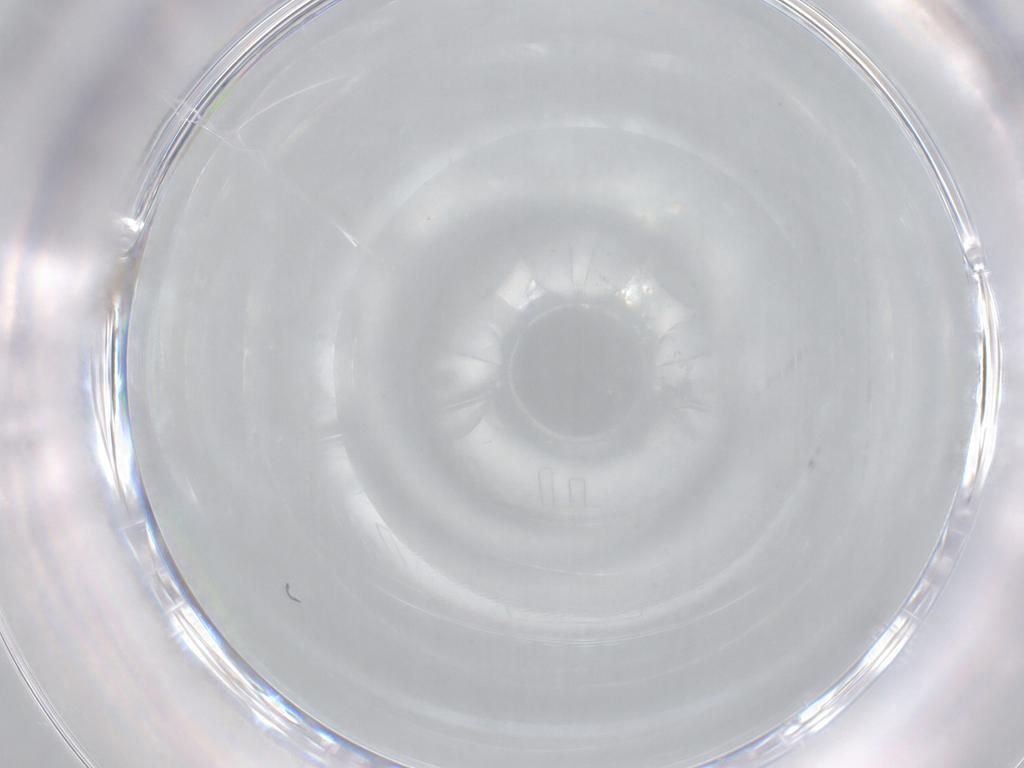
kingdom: Animalia
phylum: Arthropoda
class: Insecta
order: Diptera
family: Cecidomyiidae
